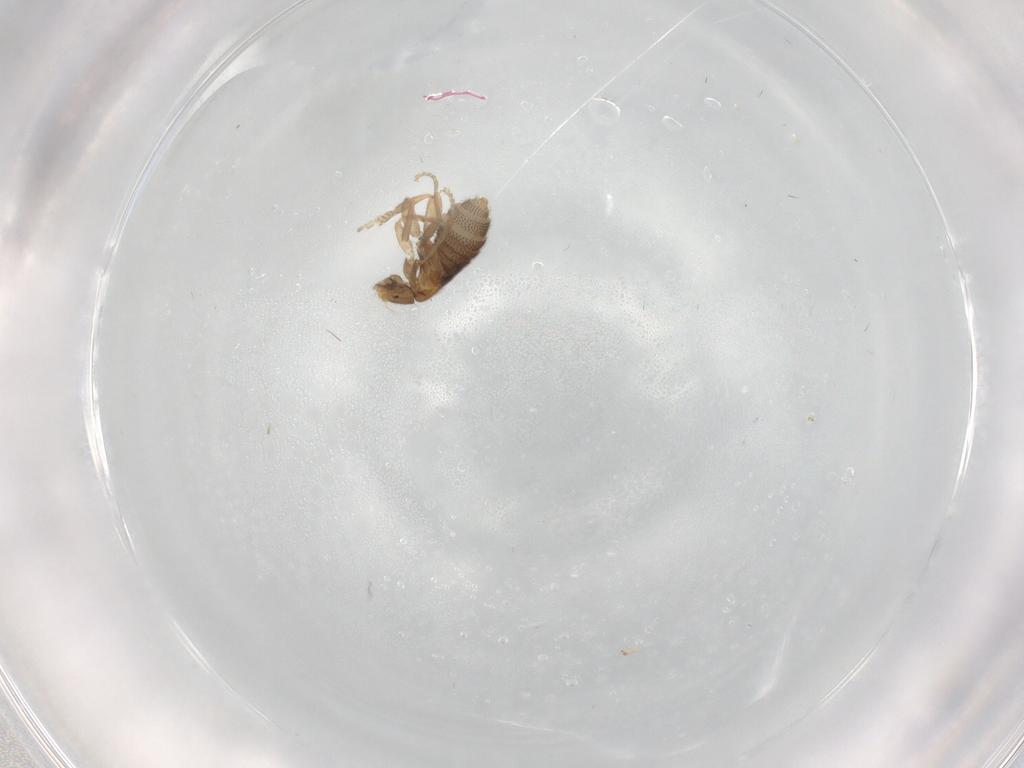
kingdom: Animalia
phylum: Arthropoda
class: Insecta
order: Diptera
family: Phoridae
